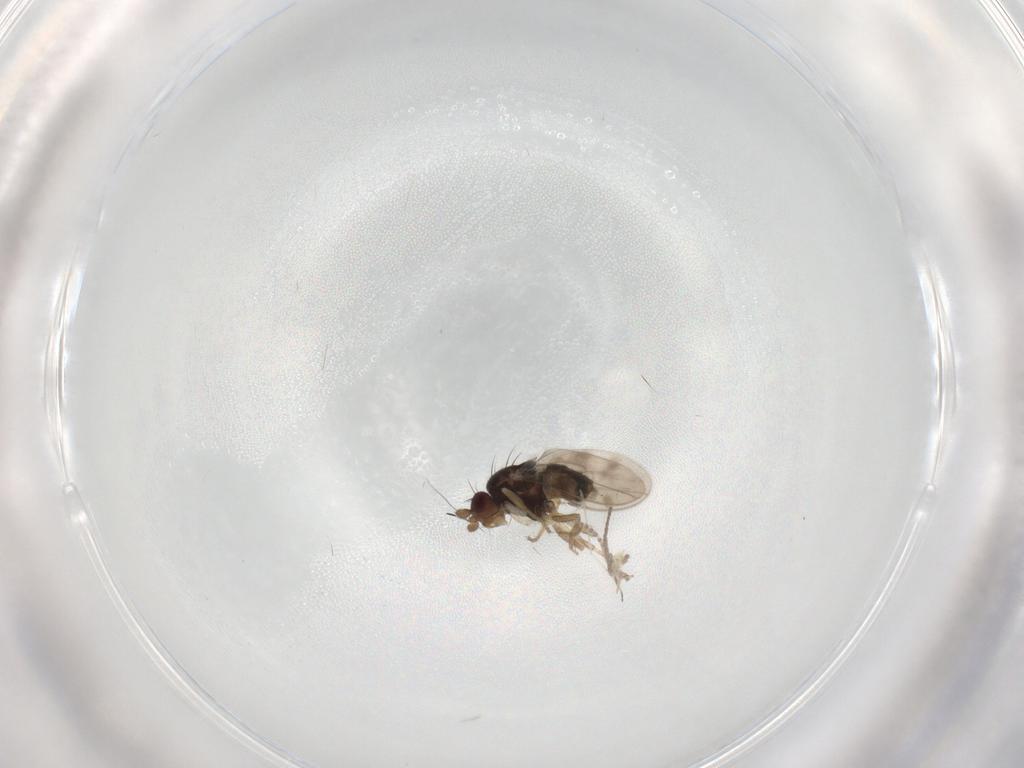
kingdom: Animalia
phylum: Arthropoda
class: Insecta
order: Diptera
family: Sphaeroceridae
